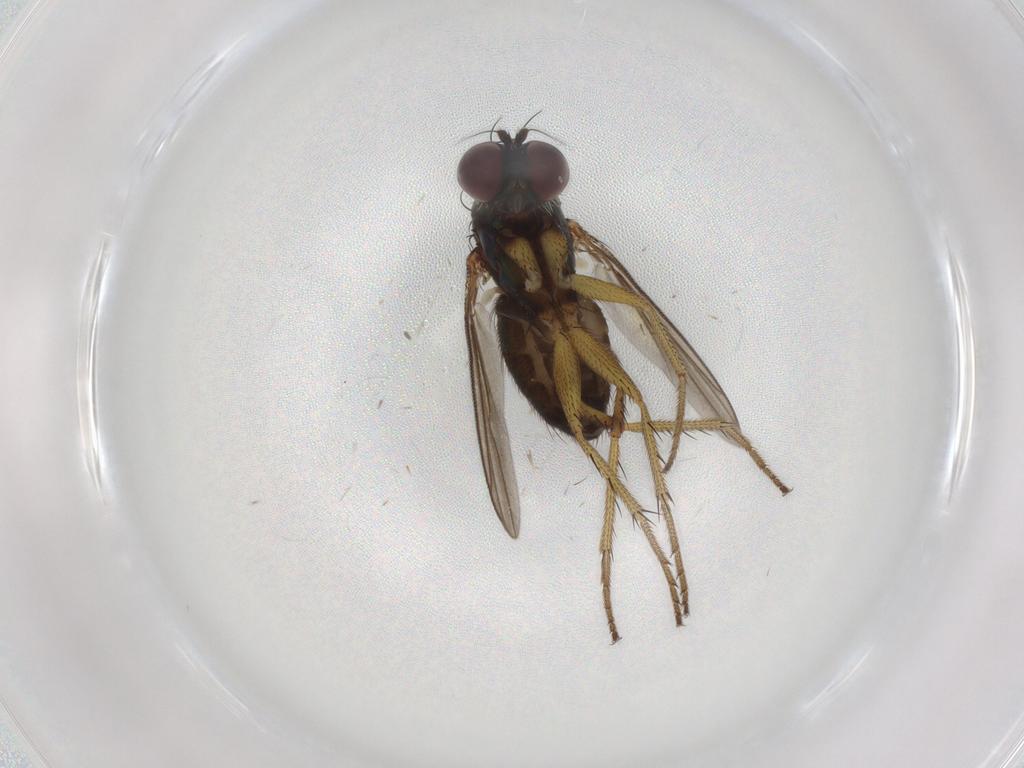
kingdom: Animalia
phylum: Arthropoda
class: Insecta
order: Diptera
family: Dolichopodidae
